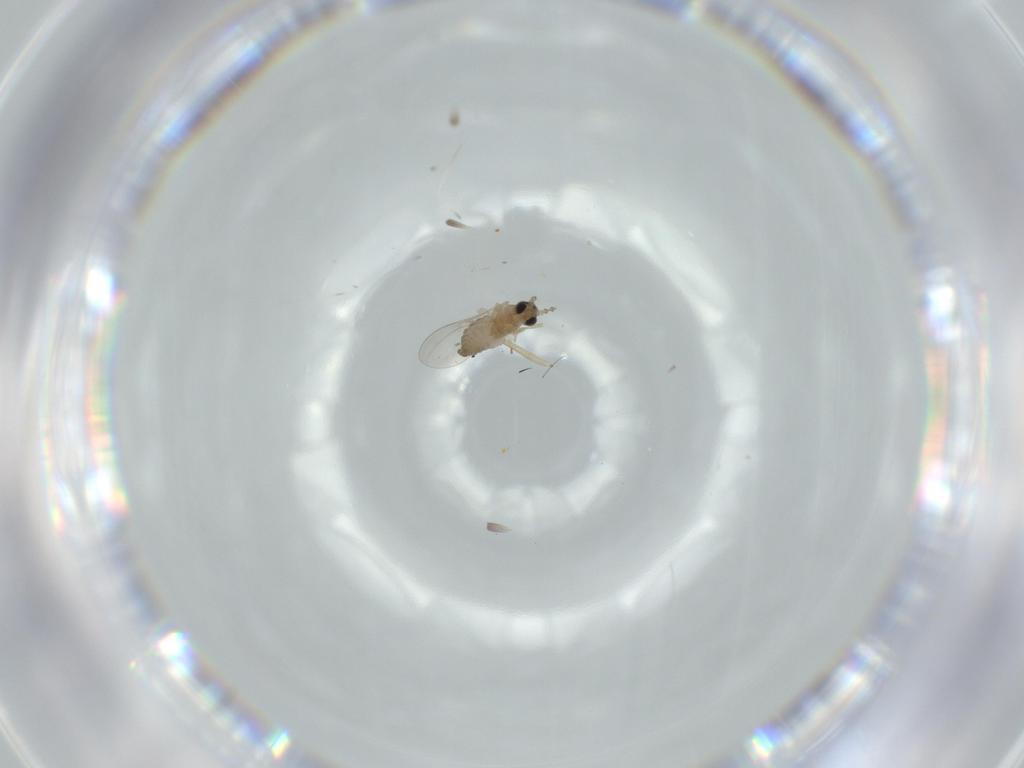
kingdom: Animalia
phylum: Arthropoda
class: Insecta
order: Diptera
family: Cecidomyiidae
